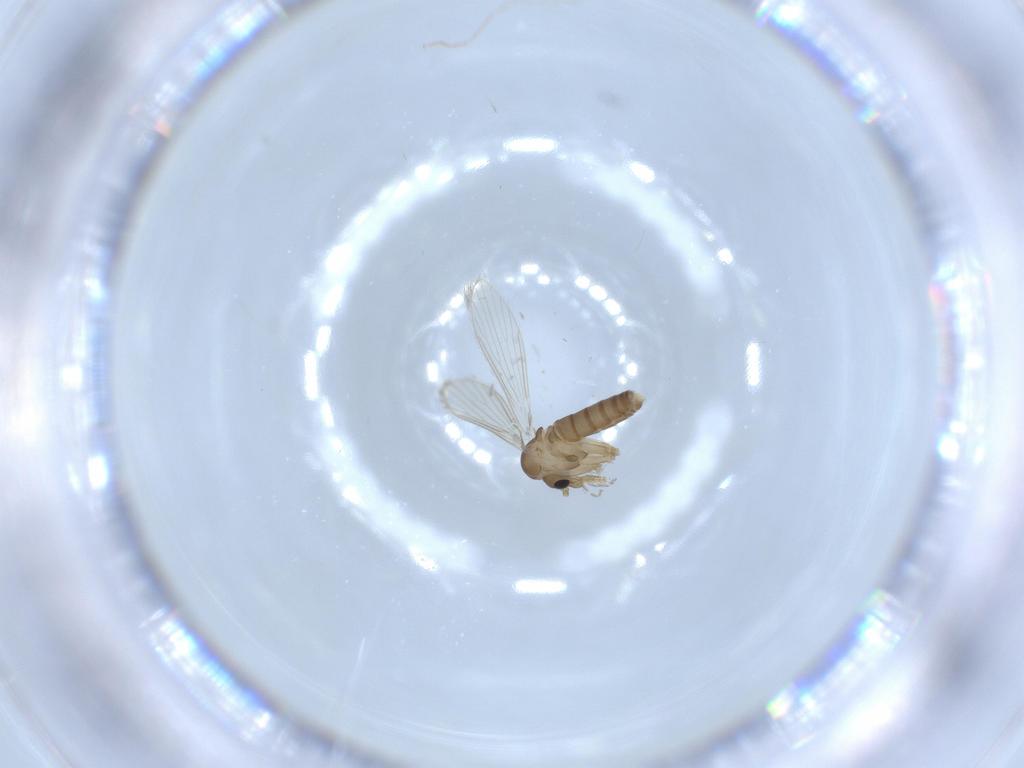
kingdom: Animalia
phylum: Arthropoda
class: Insecta
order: Diptera
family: Psychodidae
